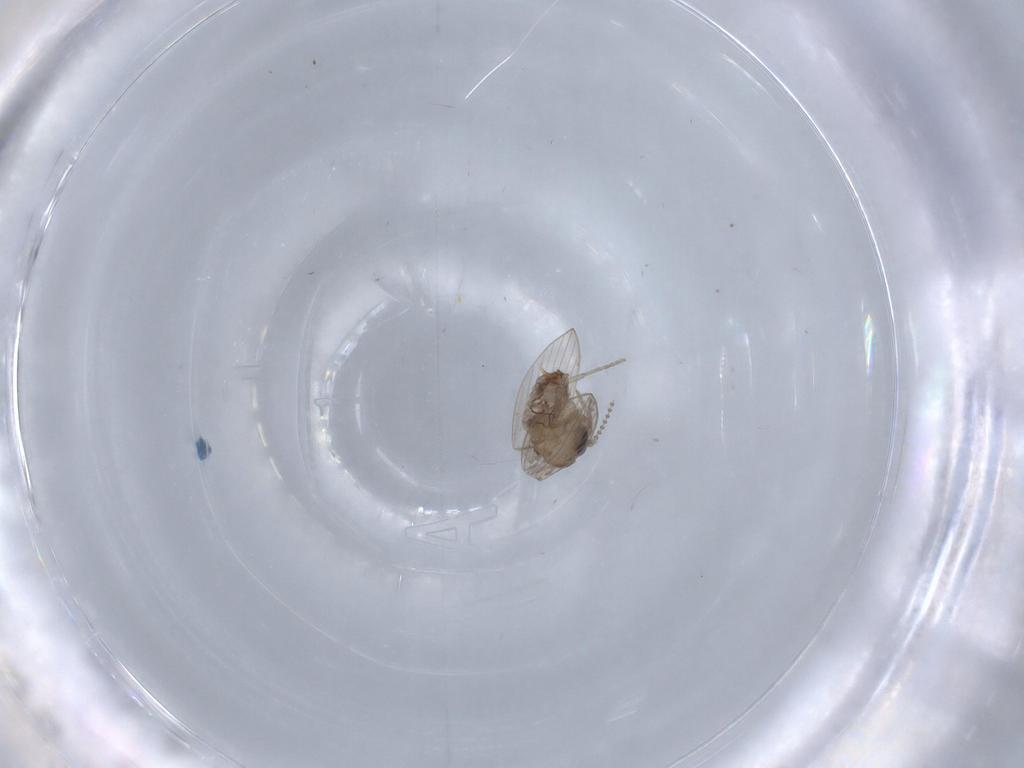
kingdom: Animalia
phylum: Arthropoda
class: Insecta
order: Diptera
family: Psychodidae
